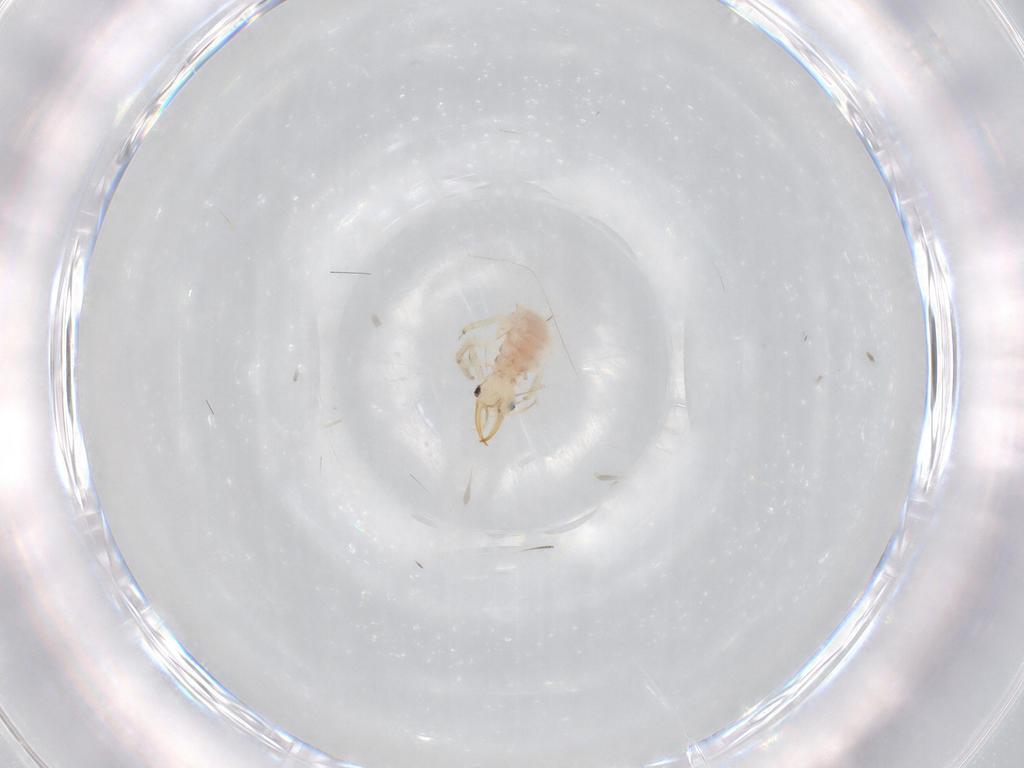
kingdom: Animalia
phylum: Arthropoda
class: Insecta
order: Neuroptera
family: Chrysopidae
